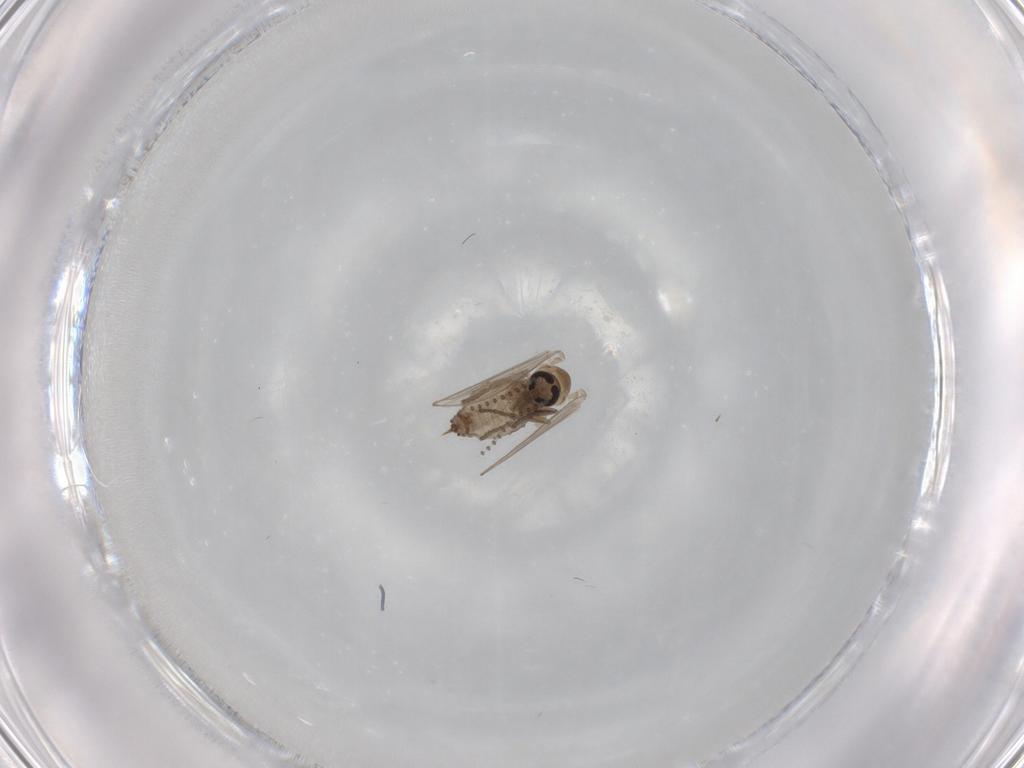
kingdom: Animalia
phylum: Arthropoda
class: Insecta
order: Diptera
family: Psychodidae
